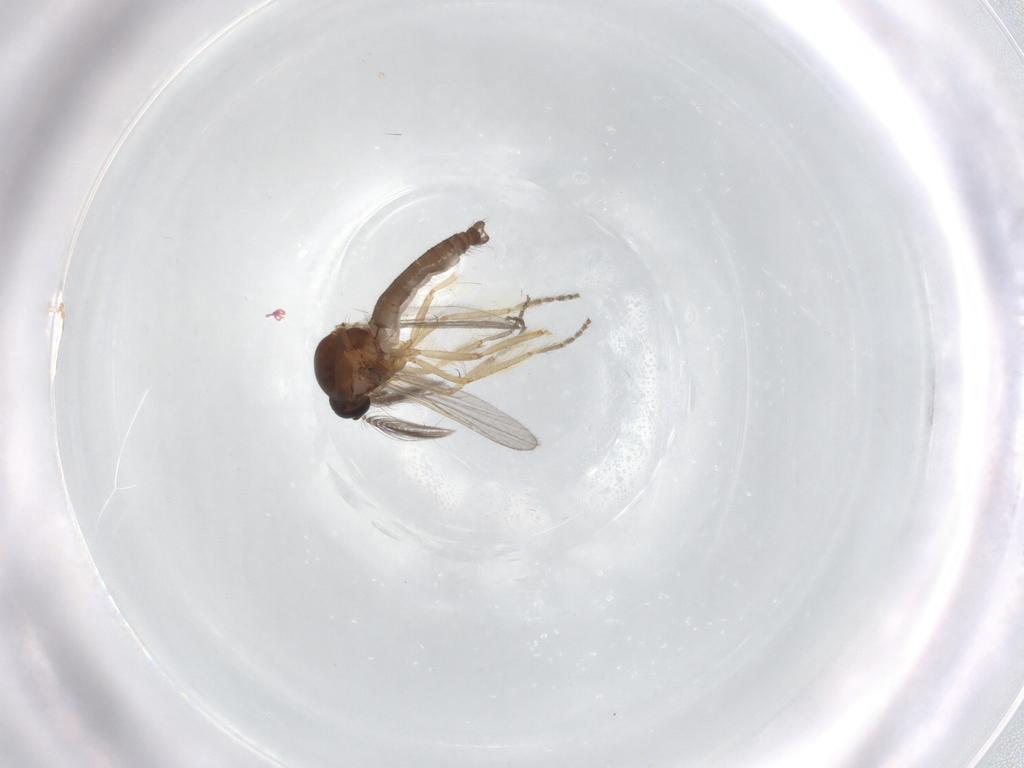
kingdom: Animalia
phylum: Arthropoda
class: Insecta
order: Diptera
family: Ceratopogonidae
